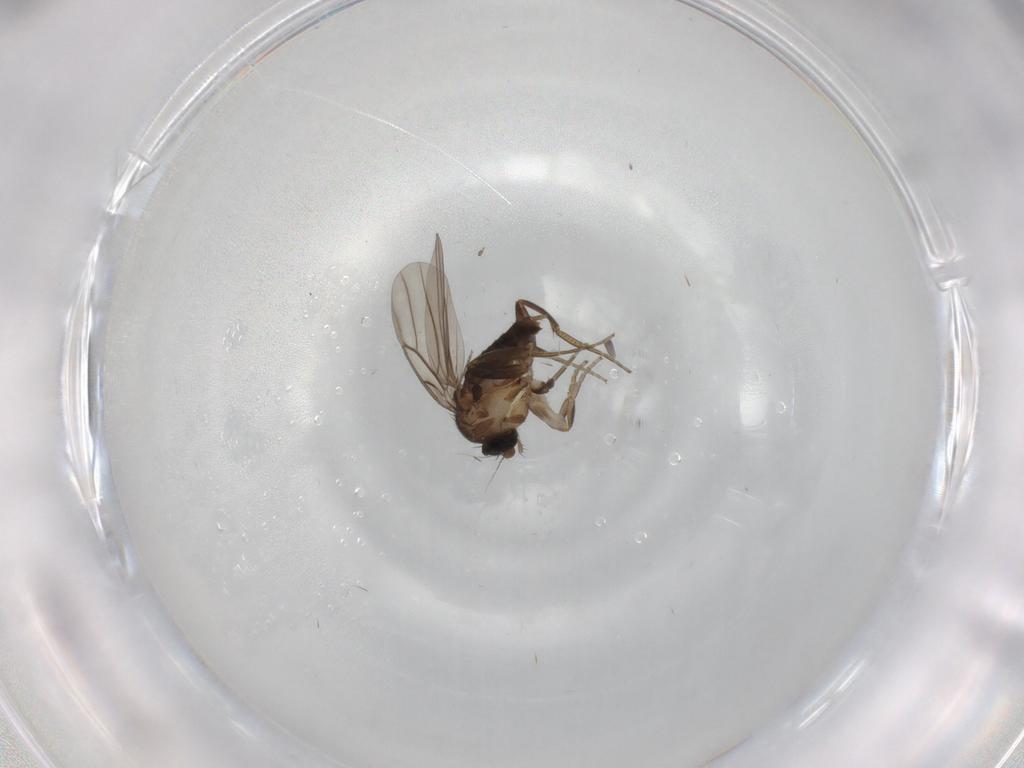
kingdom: Animalia
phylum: Arthropoda
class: Insecta
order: Diptera
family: Phoridae
